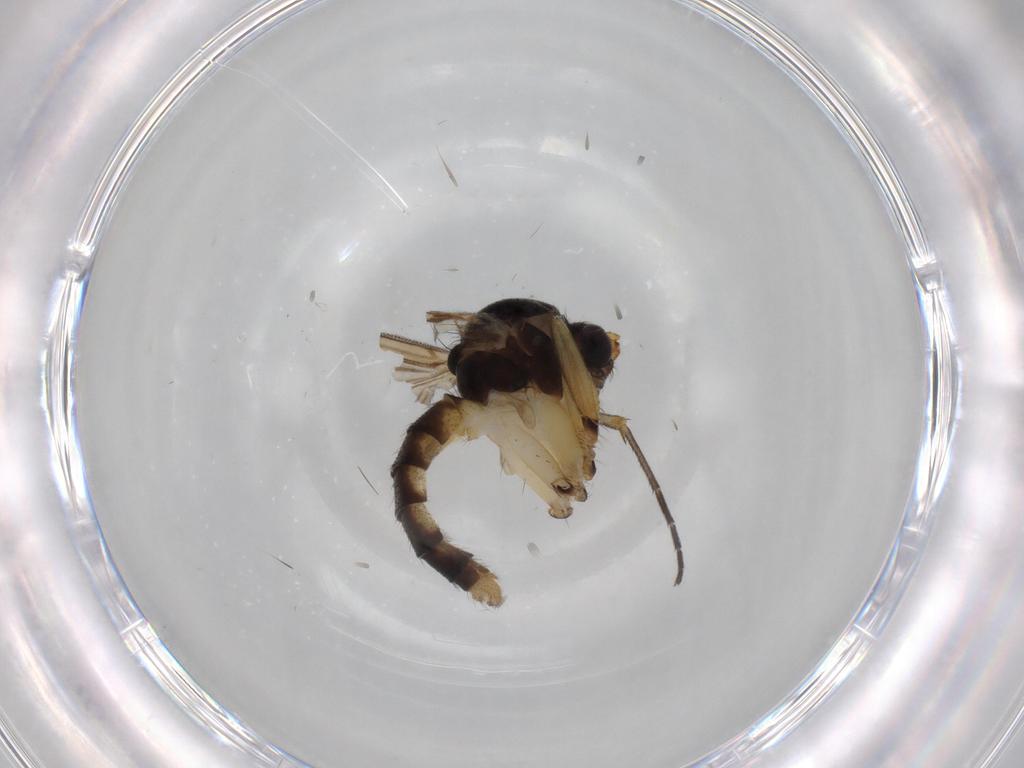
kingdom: Animalia
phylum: Arthropoda
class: Insecta
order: Diptera
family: Mycetophilidae
